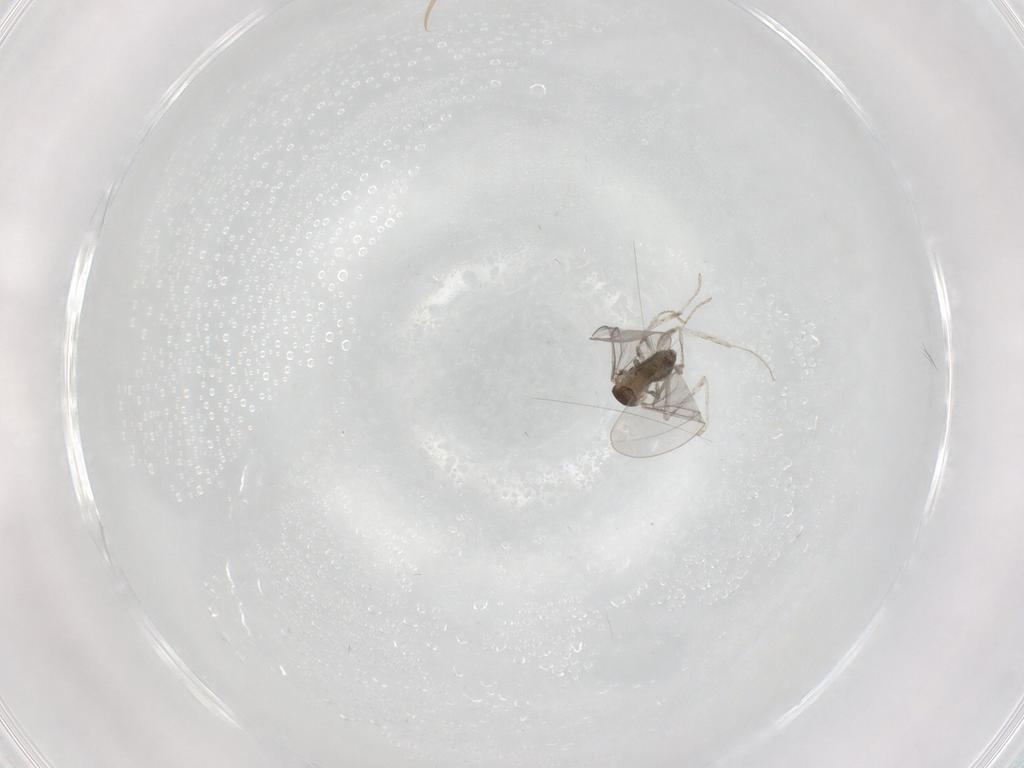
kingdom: Animalia
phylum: Arthropoda
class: Insecta
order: Diptera
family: Cecidomyiidae
